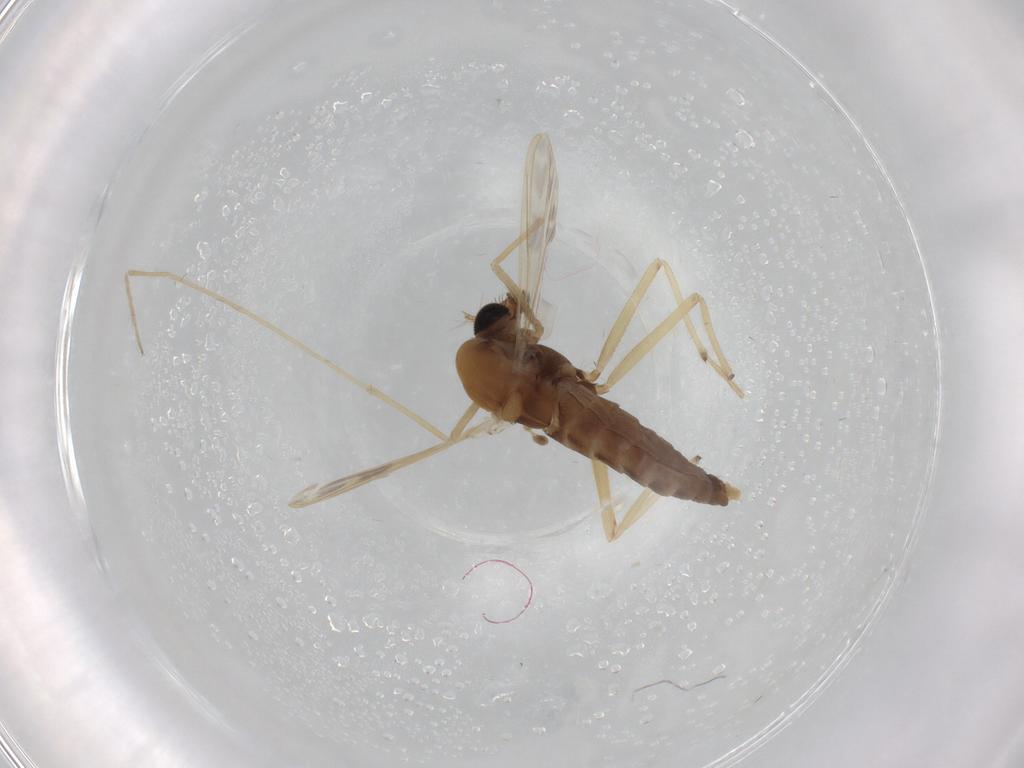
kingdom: Animalia
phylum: Arthropoda
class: Insecta
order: Diptera
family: Chironomidae
